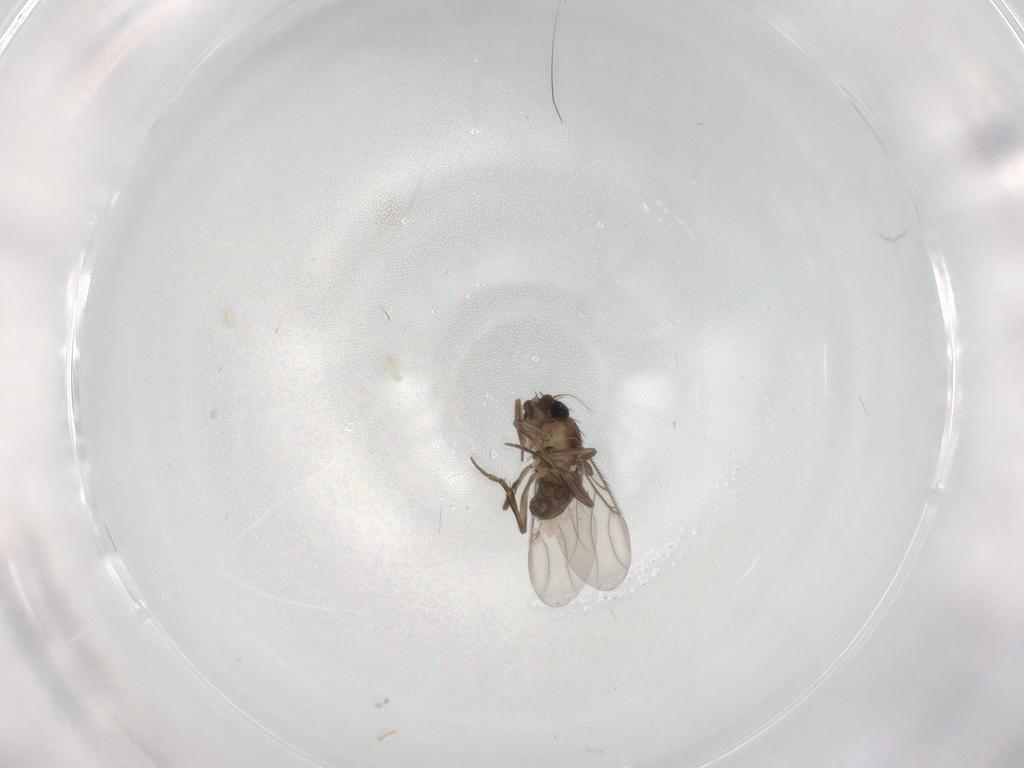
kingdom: Animalia
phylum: Arthropoda
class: Insecta
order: Diptera
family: Phoridae
